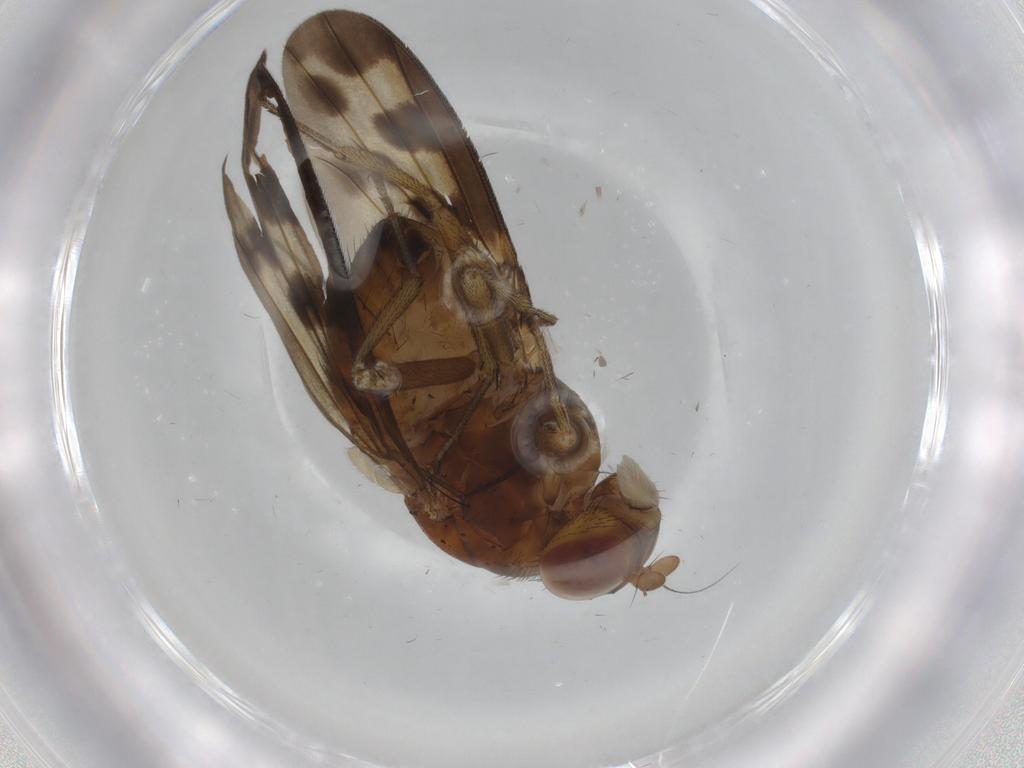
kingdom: Animalia
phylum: Arthropoda
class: Insecta
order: Diptera
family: Sciaridae
